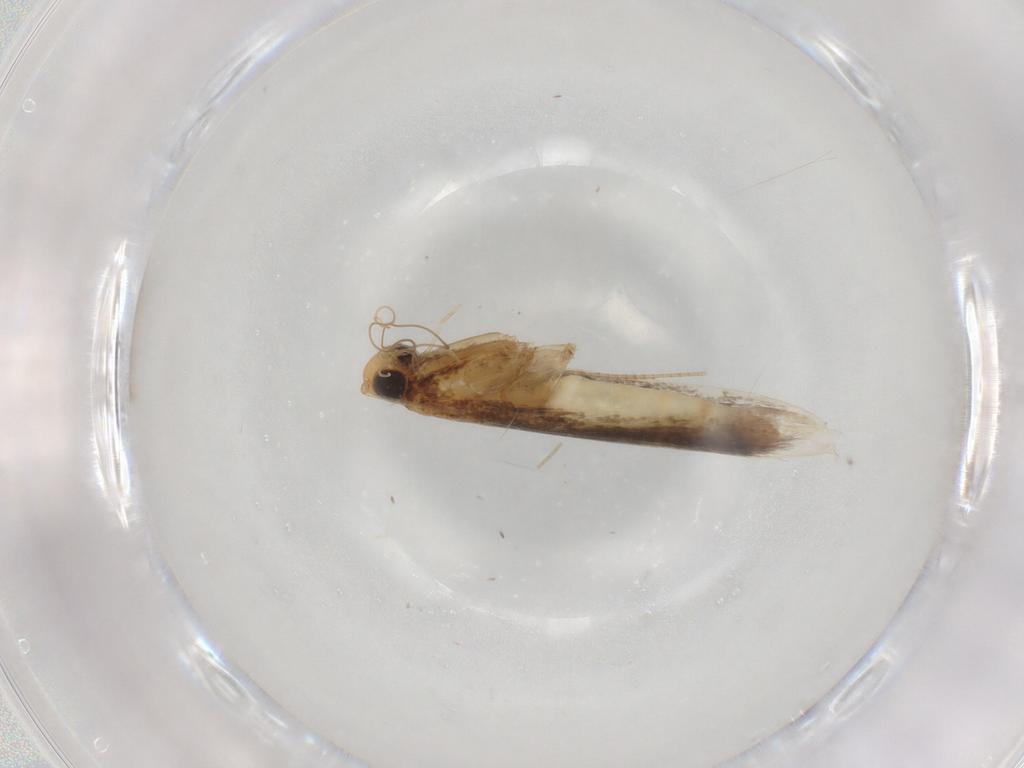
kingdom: Animalia
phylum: Arthropoda
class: Insecta
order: Lepidoptera
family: Gracillariidae
